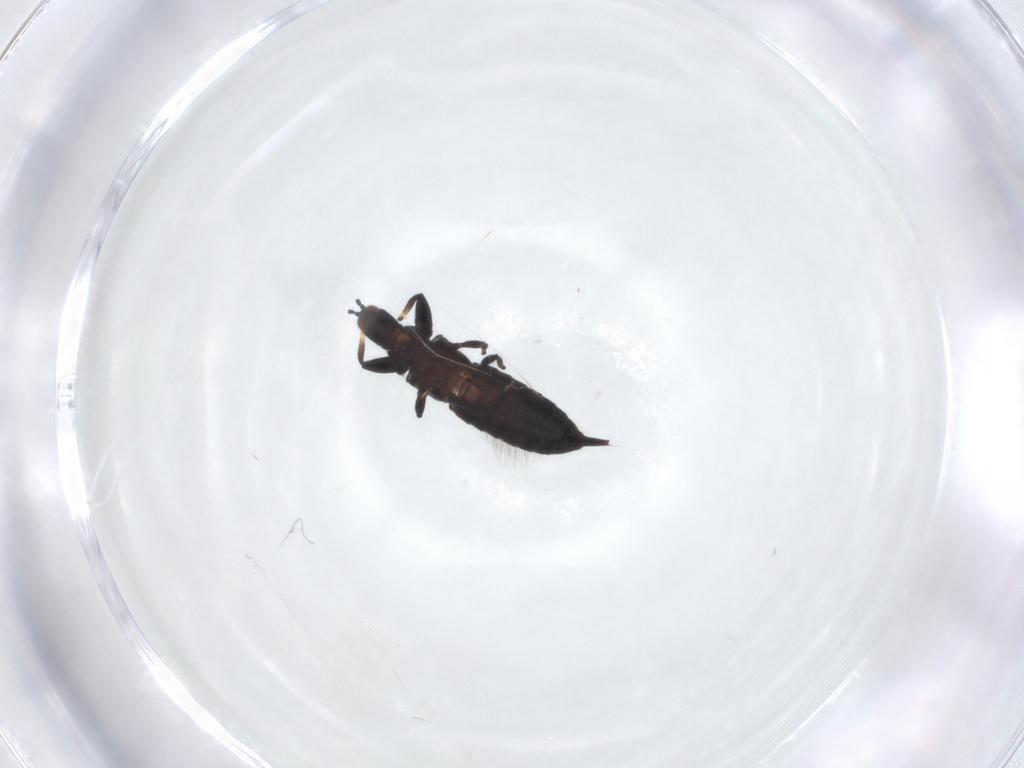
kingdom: Animalia
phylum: Arthropoda
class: Insecta
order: Thysanoptera
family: Phlaeothripidae
